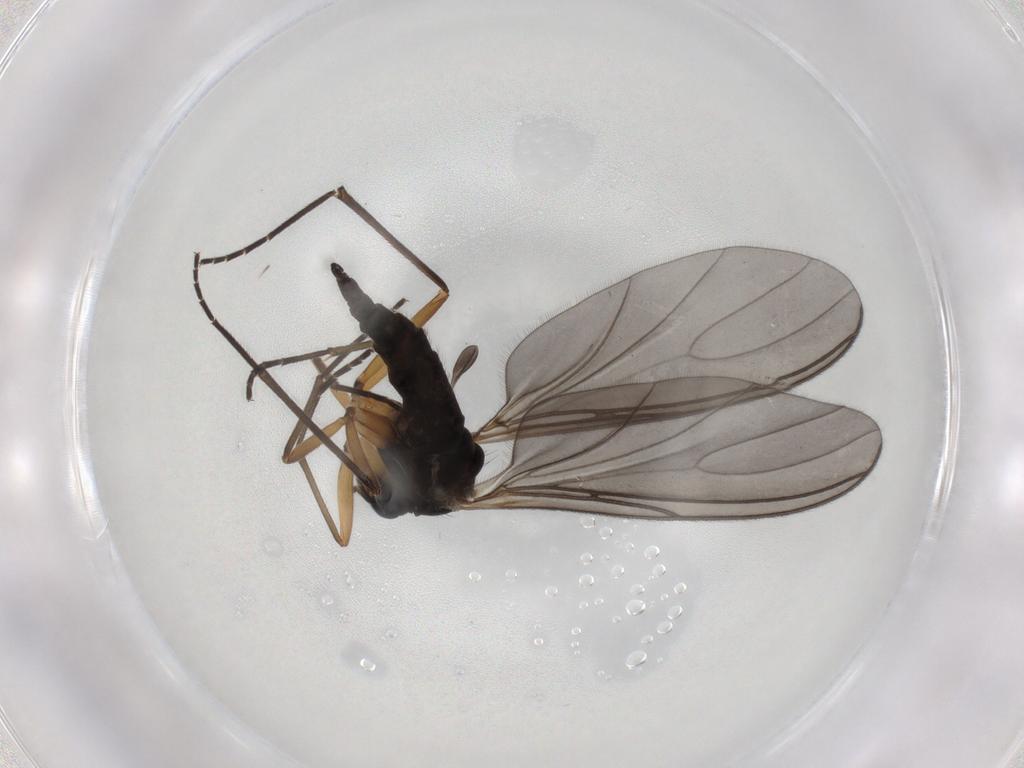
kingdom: Animalia
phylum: Arthropoda
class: Insecta
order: Diptera
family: Sciaridae
